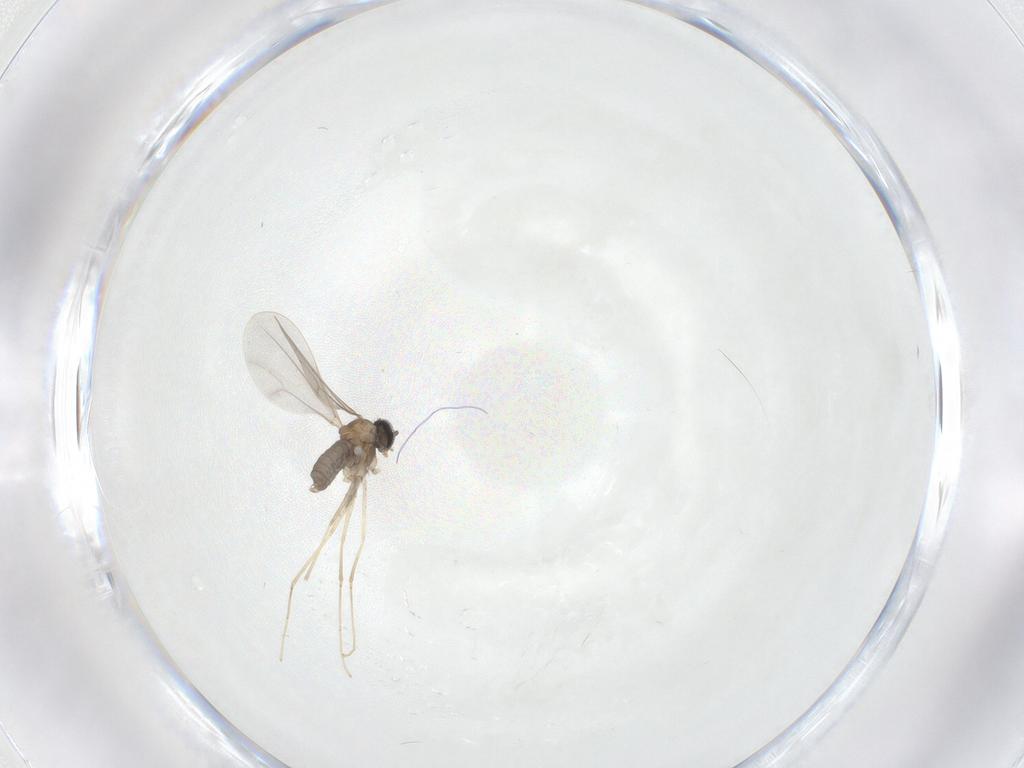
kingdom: Animalia
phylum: Arthropoda
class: Insecta
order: Diptera
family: Cecidomyiidae
